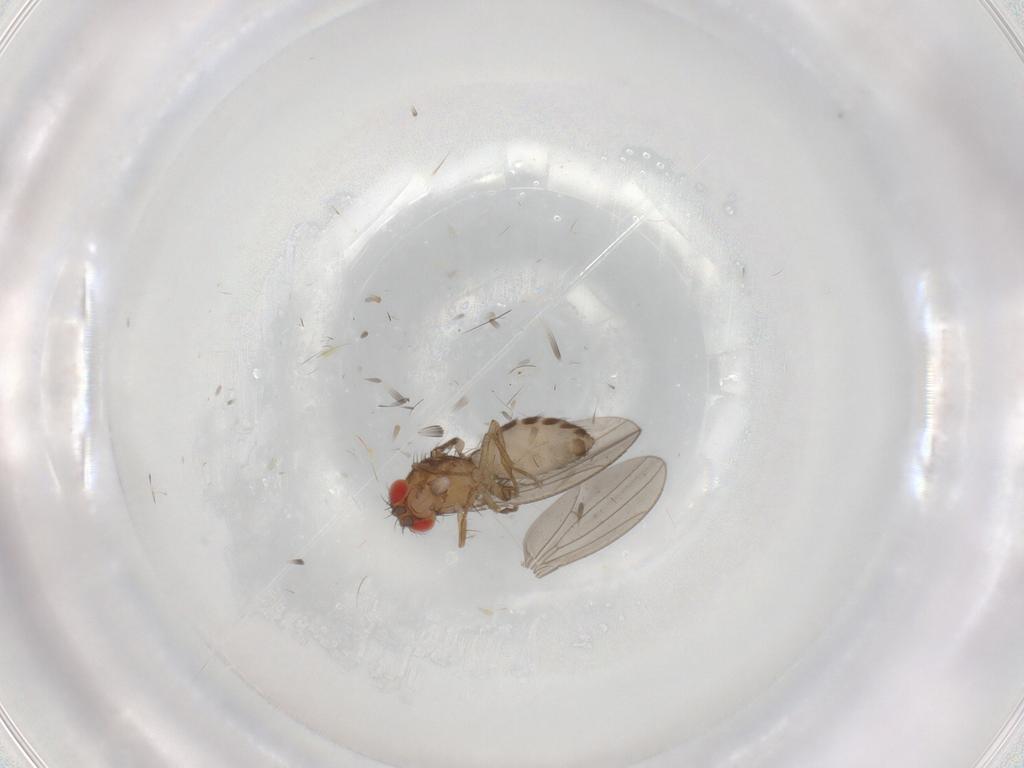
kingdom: Animalia
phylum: Arthropoda
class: Insecta
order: Diptera
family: Drosophilidae
